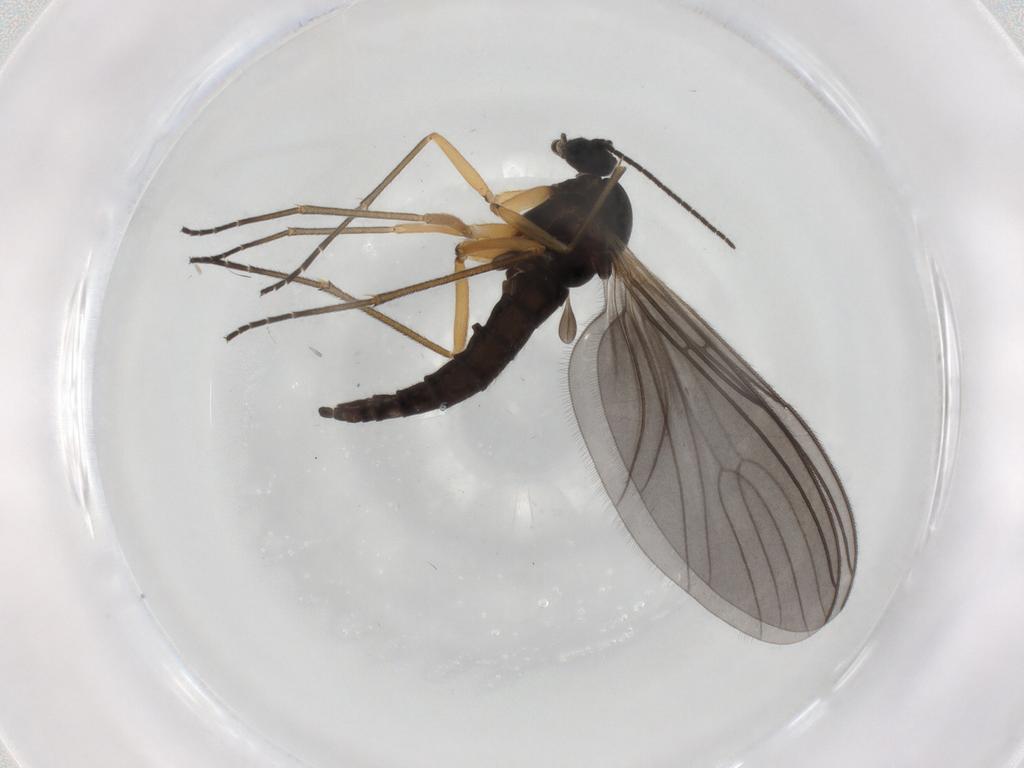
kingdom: Animalia
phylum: Arthropoda
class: Insecta
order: Diptera
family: Sciaridae
